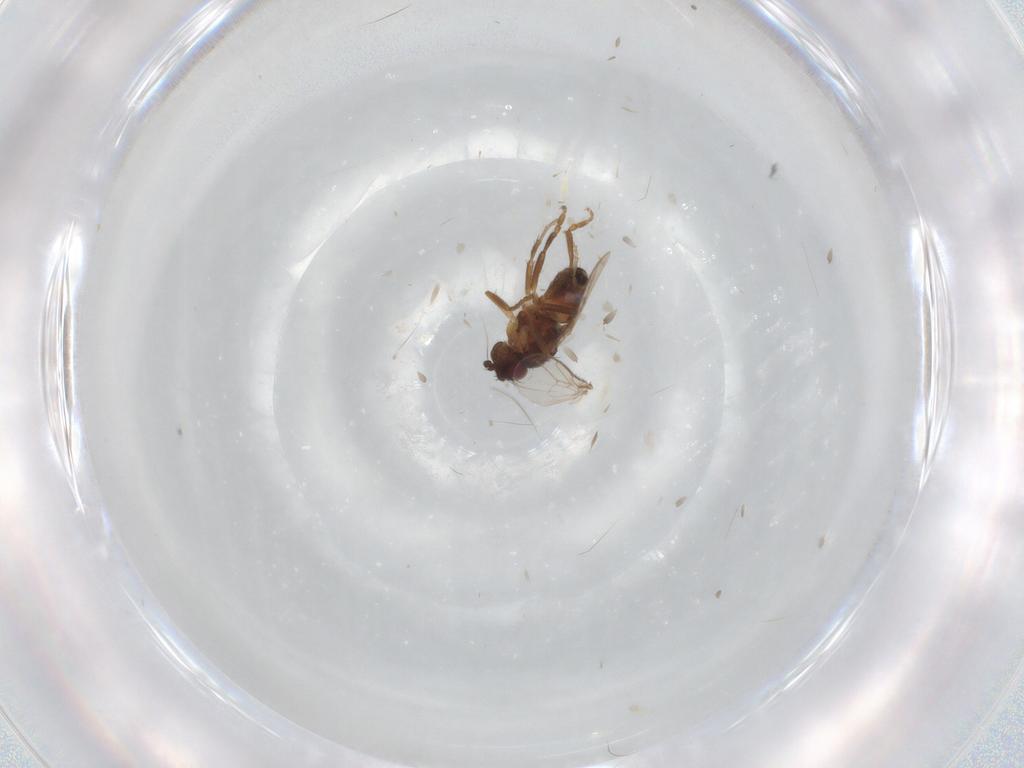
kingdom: Animalia
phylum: Arthropoda
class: Insecta
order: Diptera
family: Sphaeroceridae
